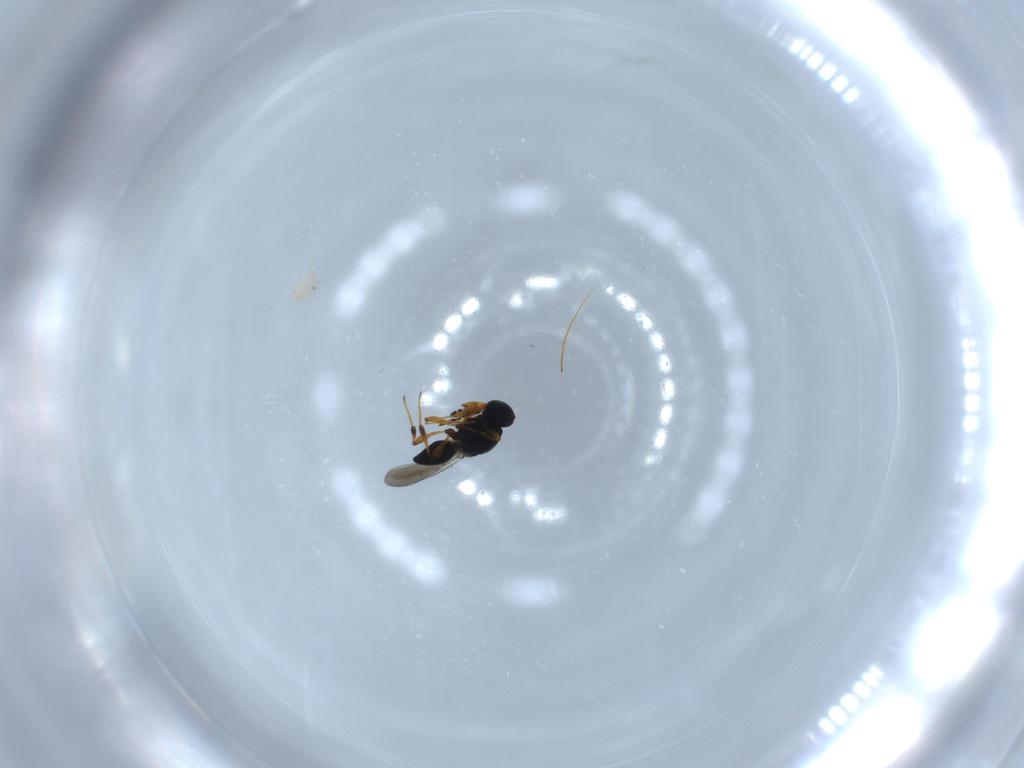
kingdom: Animalia
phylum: Arthropoda
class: Insecta
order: Hymenoptera
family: Platygastridae
